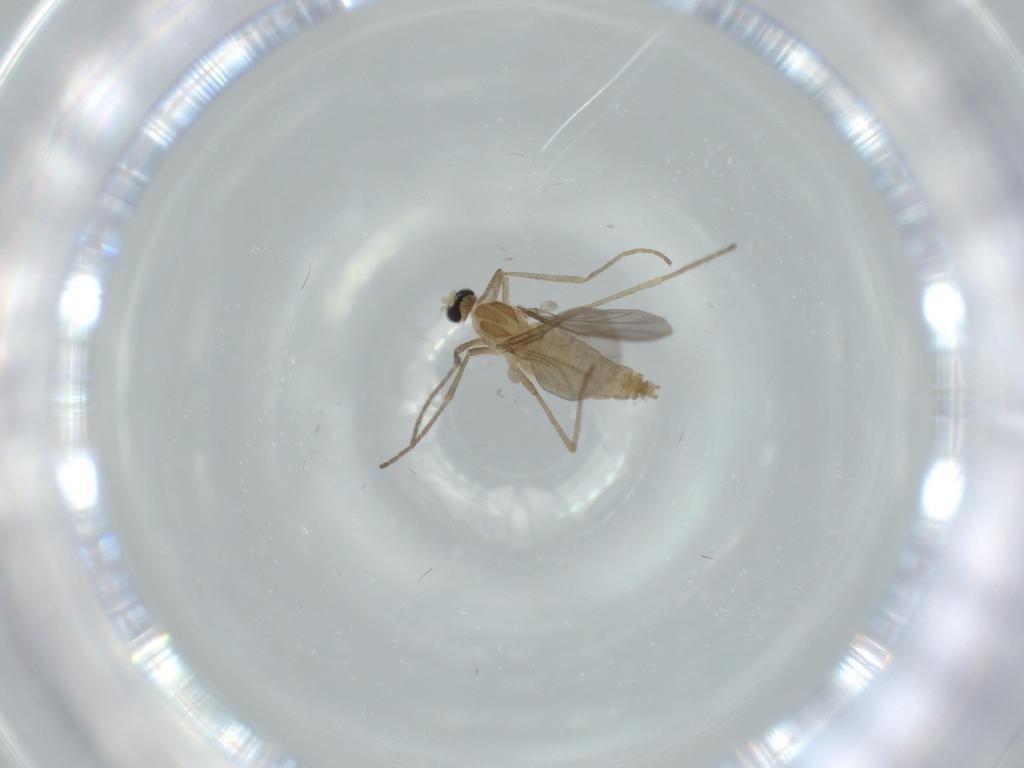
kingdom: Animalia
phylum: Arthropoda
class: Insecta
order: Diptera
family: Cecidomyiidae
